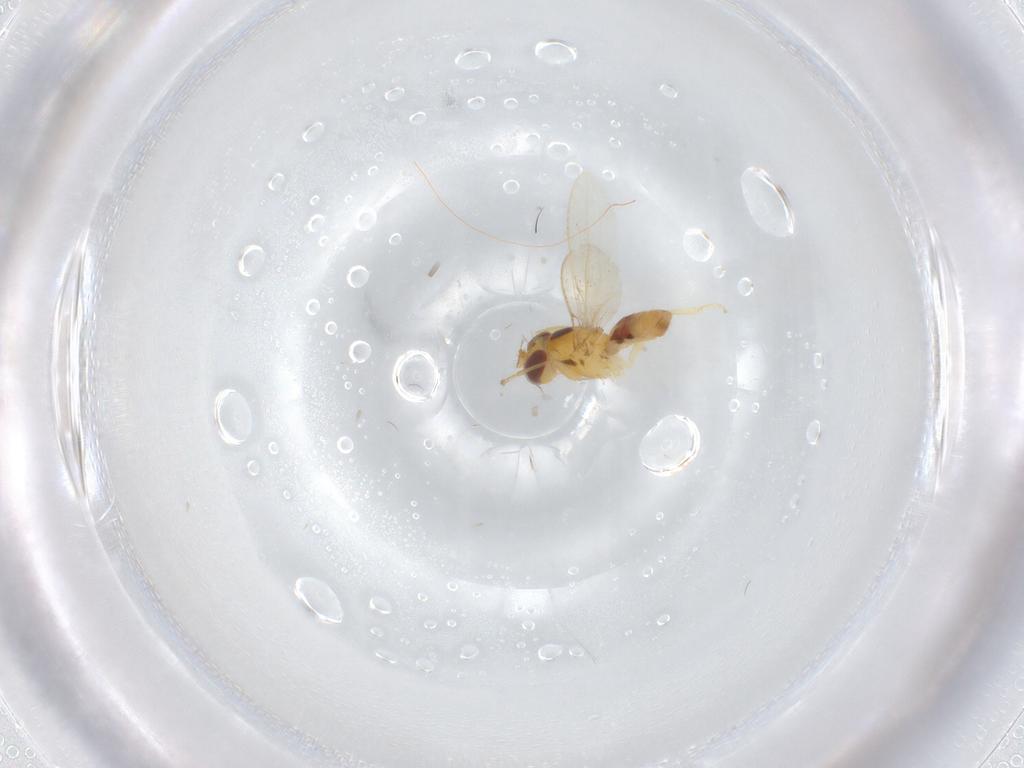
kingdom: Animalia
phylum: Arthropoda
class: Insecta
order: Diptera
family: Periscelididae
